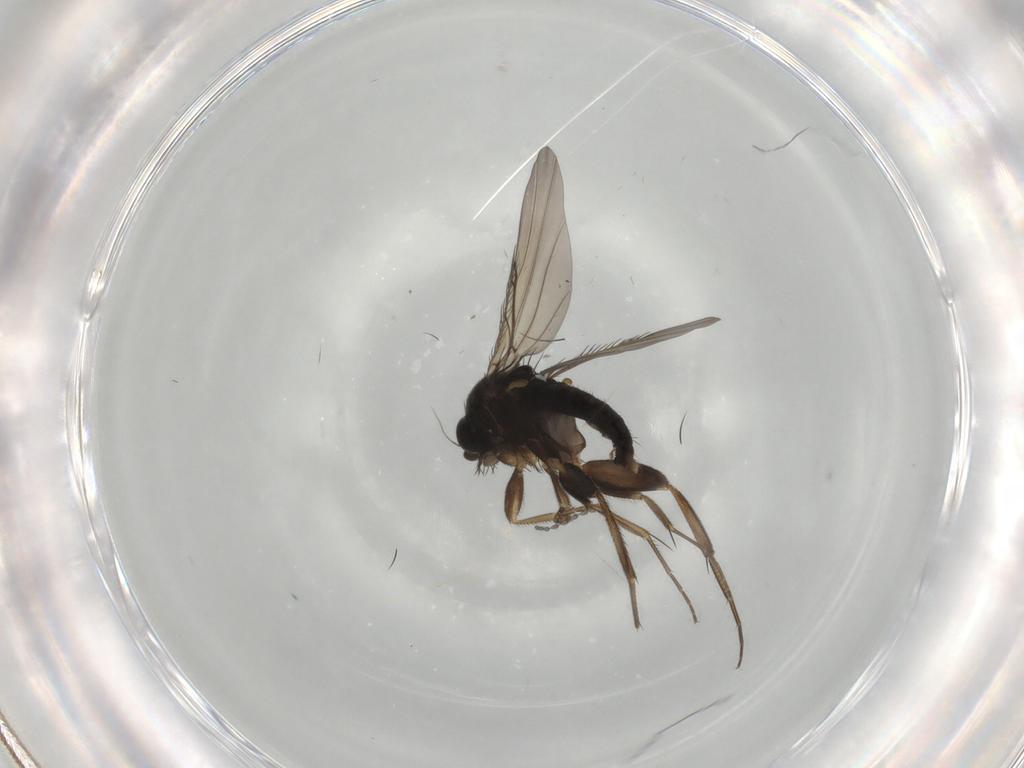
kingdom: Animalia
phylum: Arthropoda
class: Insecta
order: Diptera
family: Phoridae
